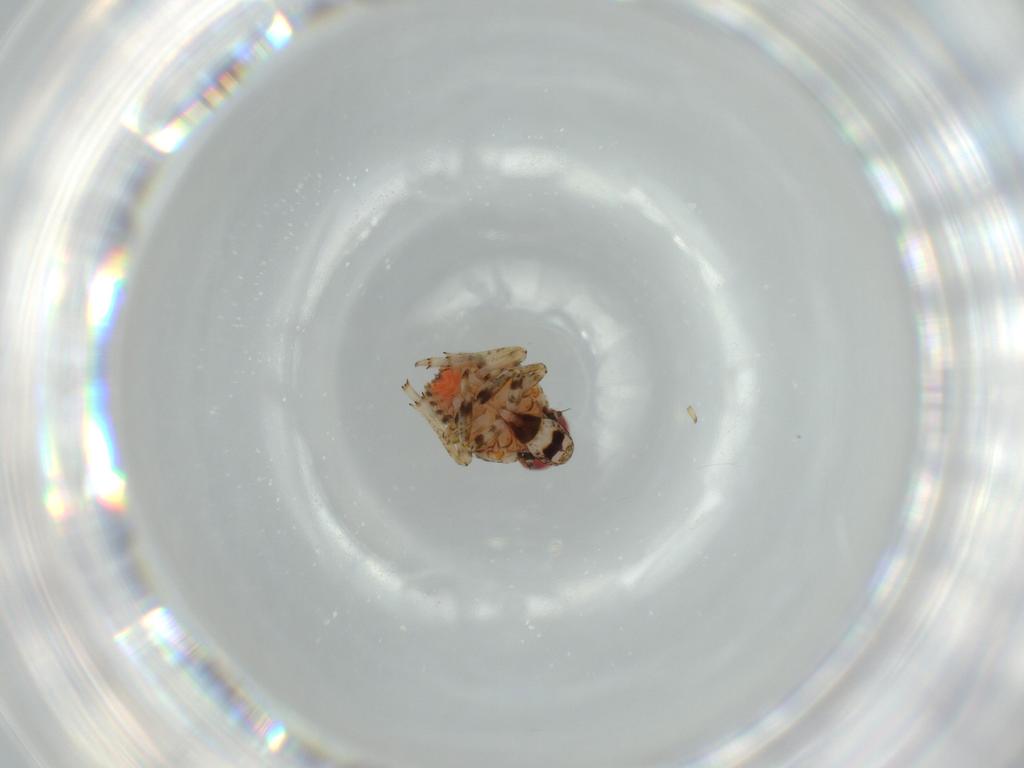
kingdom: Animalia
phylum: Arthropoda
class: Insecta
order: Hemiptera
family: Issidae
